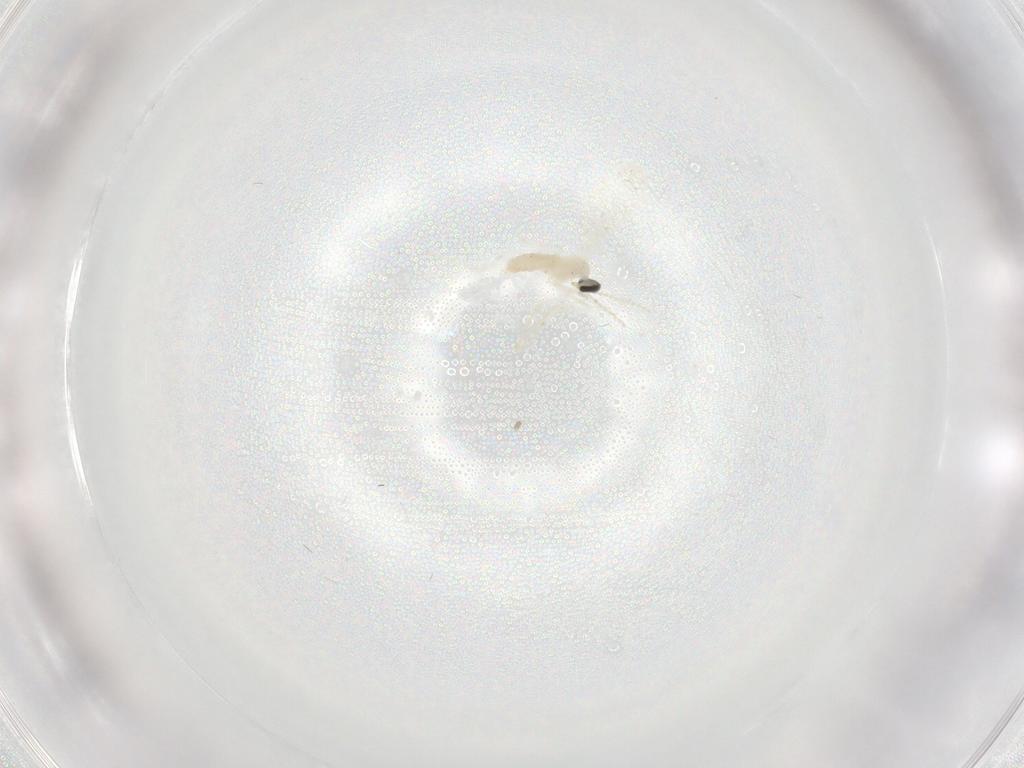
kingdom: Animalia
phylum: Arthropoda
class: Insecta
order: Diptera
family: Cecidomyiidae
